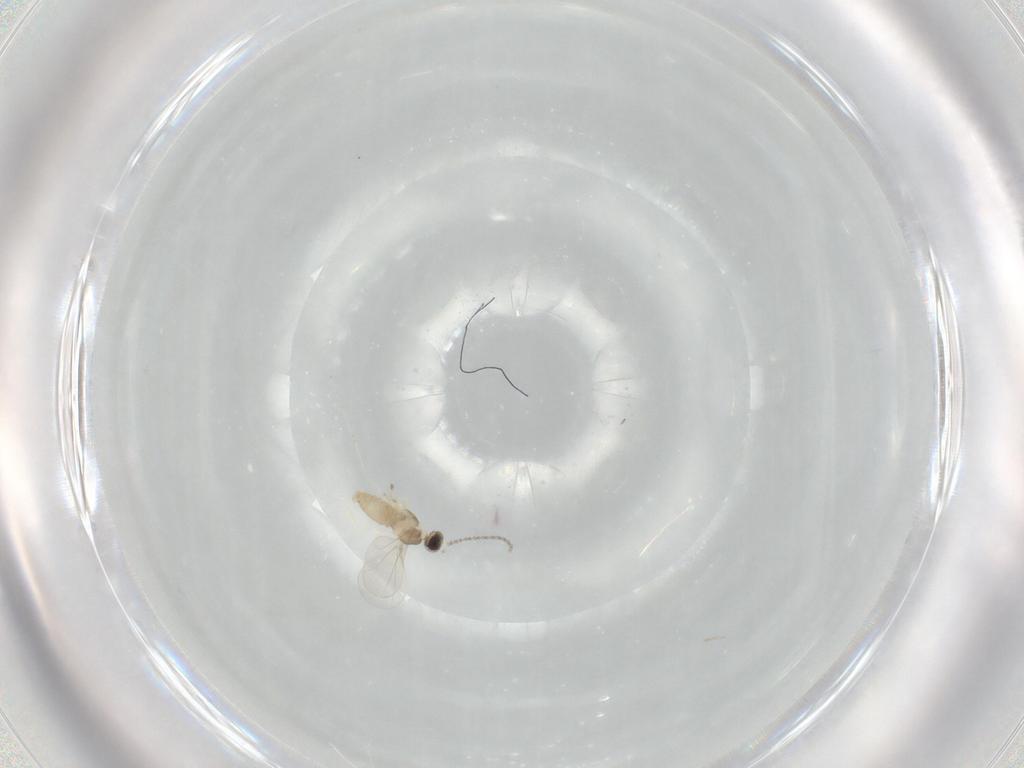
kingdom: Animalia
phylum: Arthropoda
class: Insecta
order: Diptera
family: Cecidomyiidae
